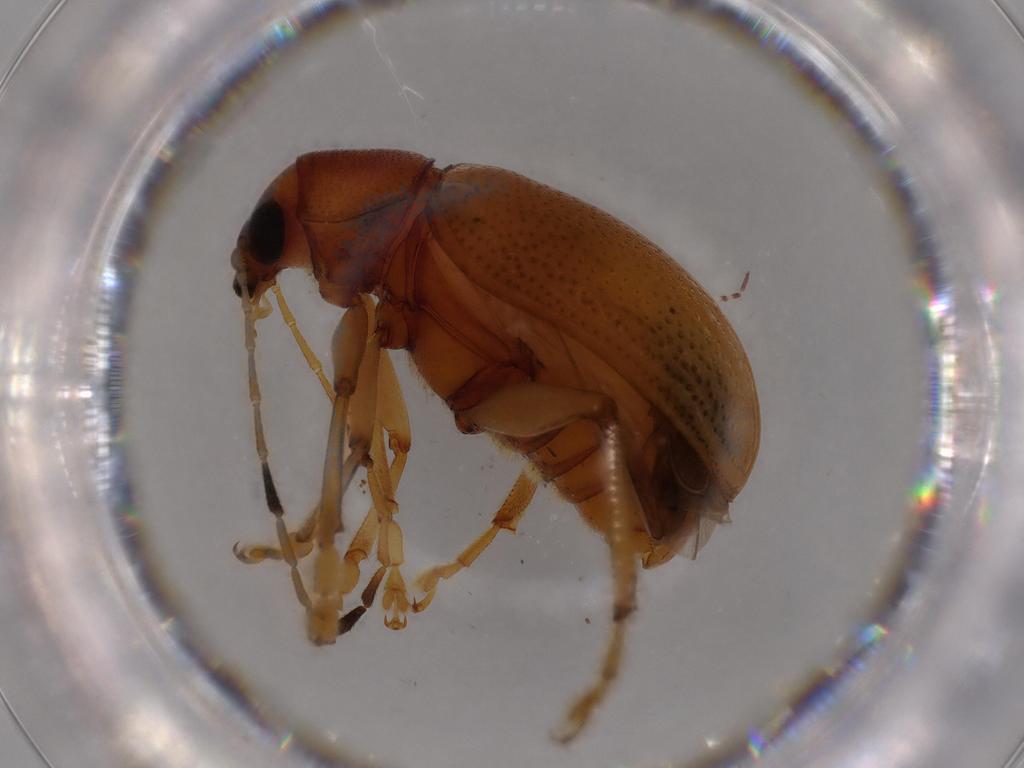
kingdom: Animalia
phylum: Arthropoda
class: Insecta
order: Coleoptera
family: Chrysomelidae
